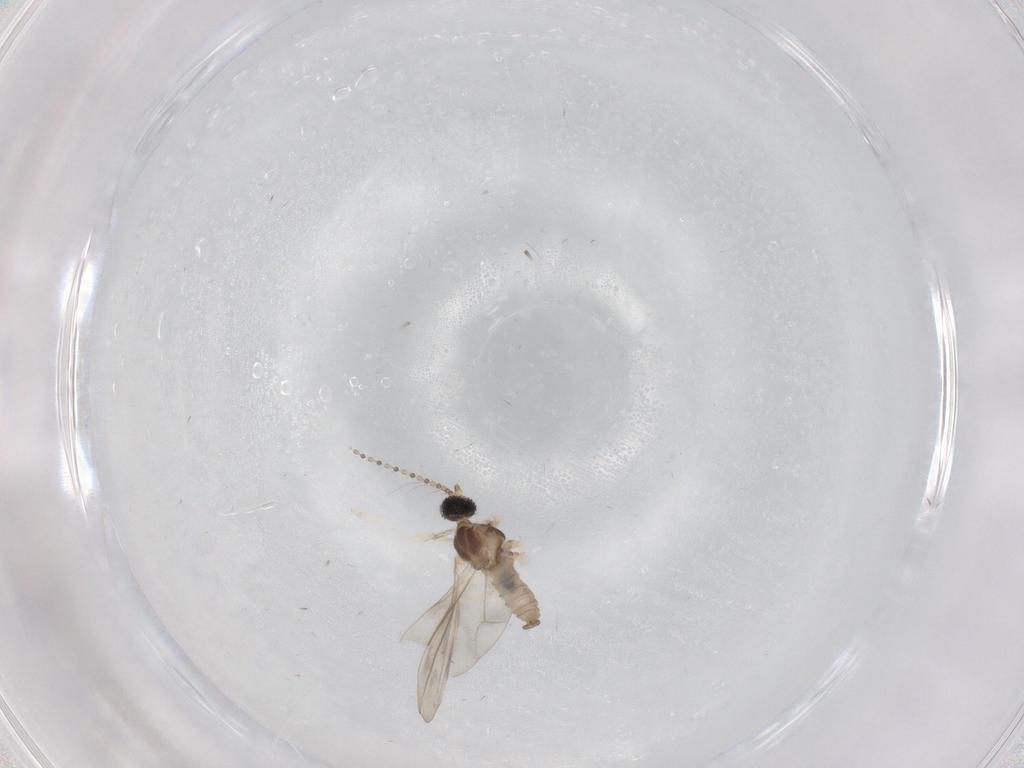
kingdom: Animalia
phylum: Arthropoda
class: Insecta
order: Diptera
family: Cecidomyiidae
